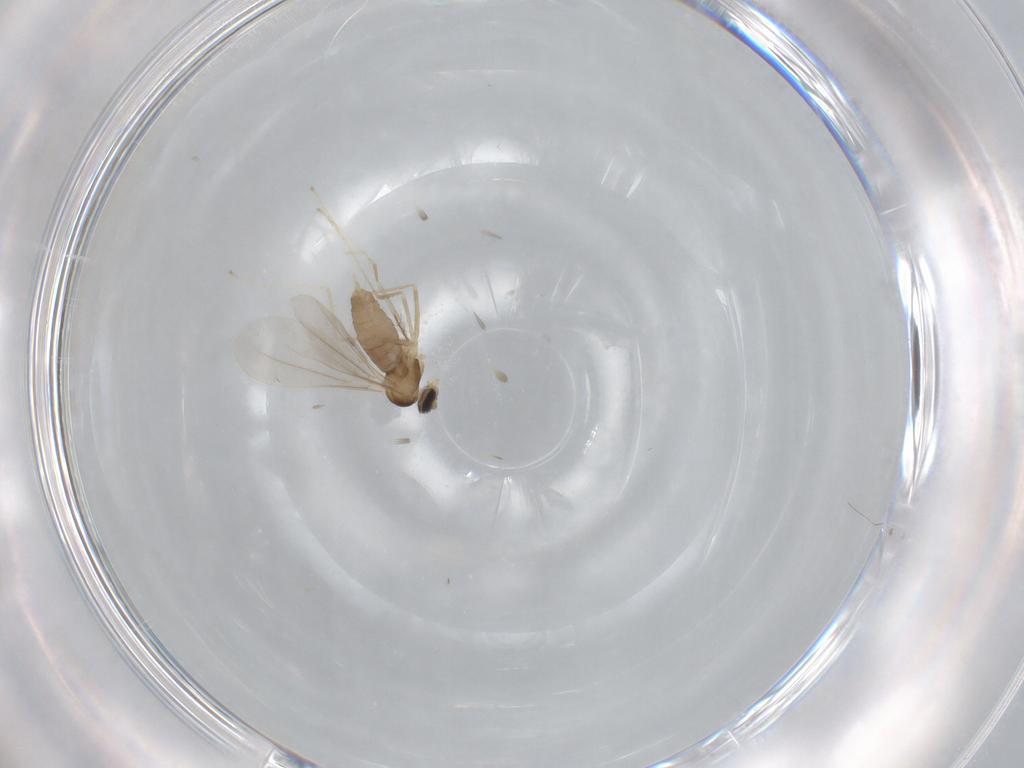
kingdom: Animalia
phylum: Arthropoda
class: Insecta
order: Diptera
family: Cecidomyiidae
